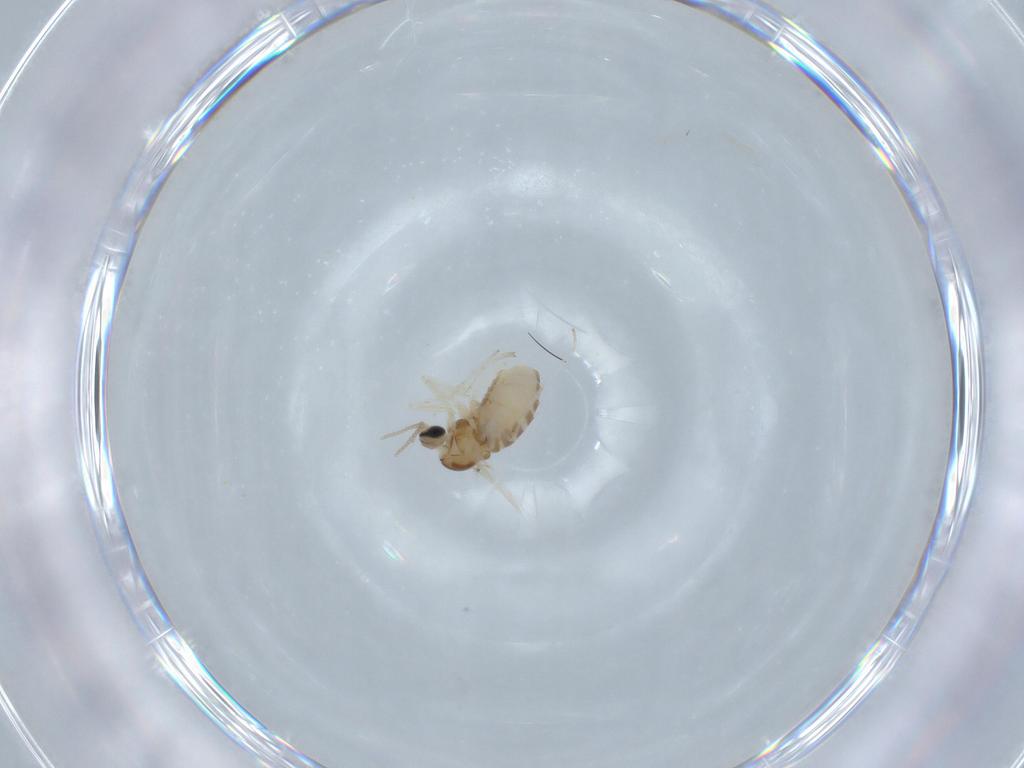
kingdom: Animalia
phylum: Arthropoda
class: Insecta
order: Diptera
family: Cecidomyiidae
